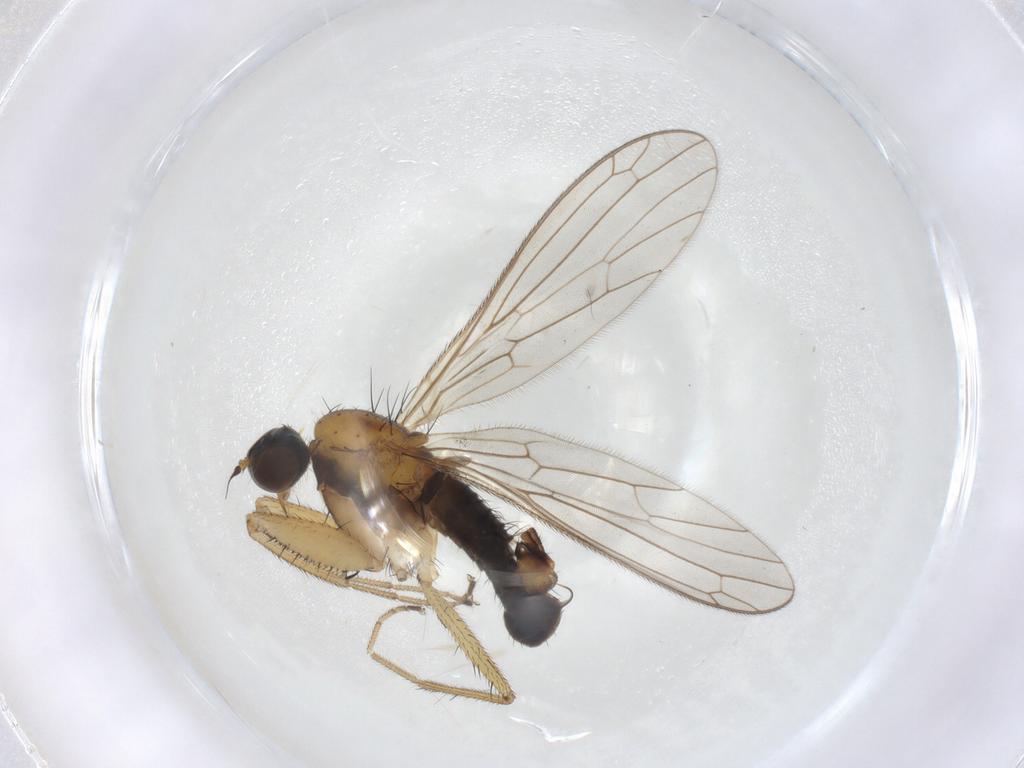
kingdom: Animalia
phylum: Arthropoda
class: Insecta
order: Diptera
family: Empididae
